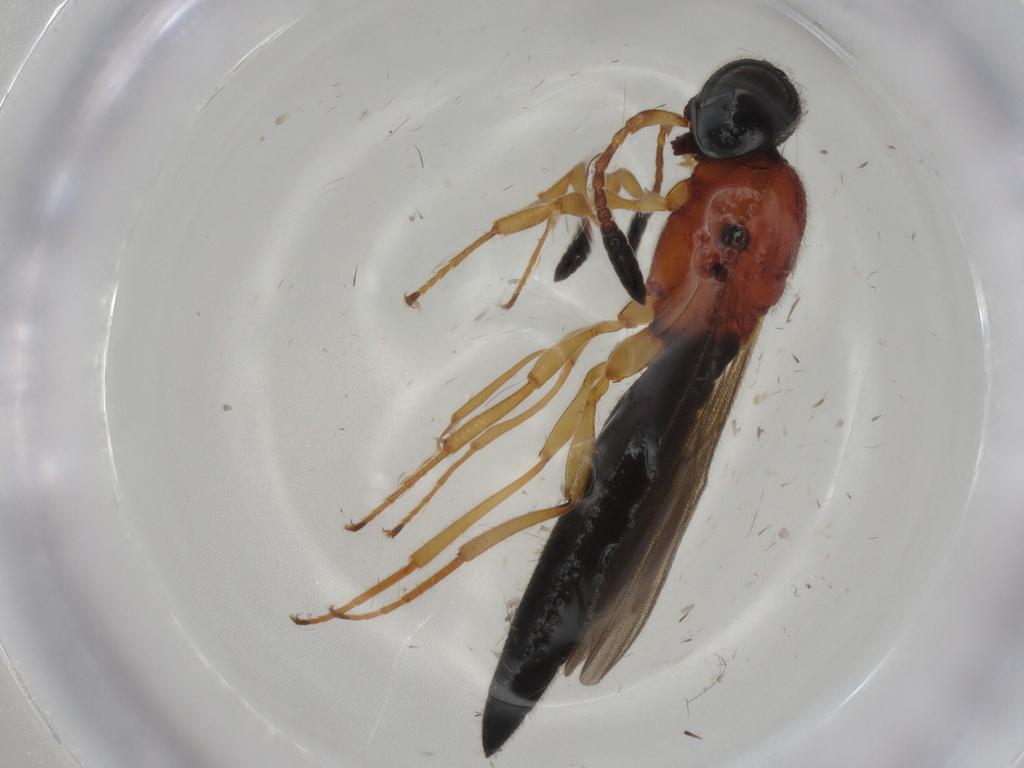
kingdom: Animalia
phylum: Arthropoda
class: Insecta
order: Hymenoptera
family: Scelionidae
